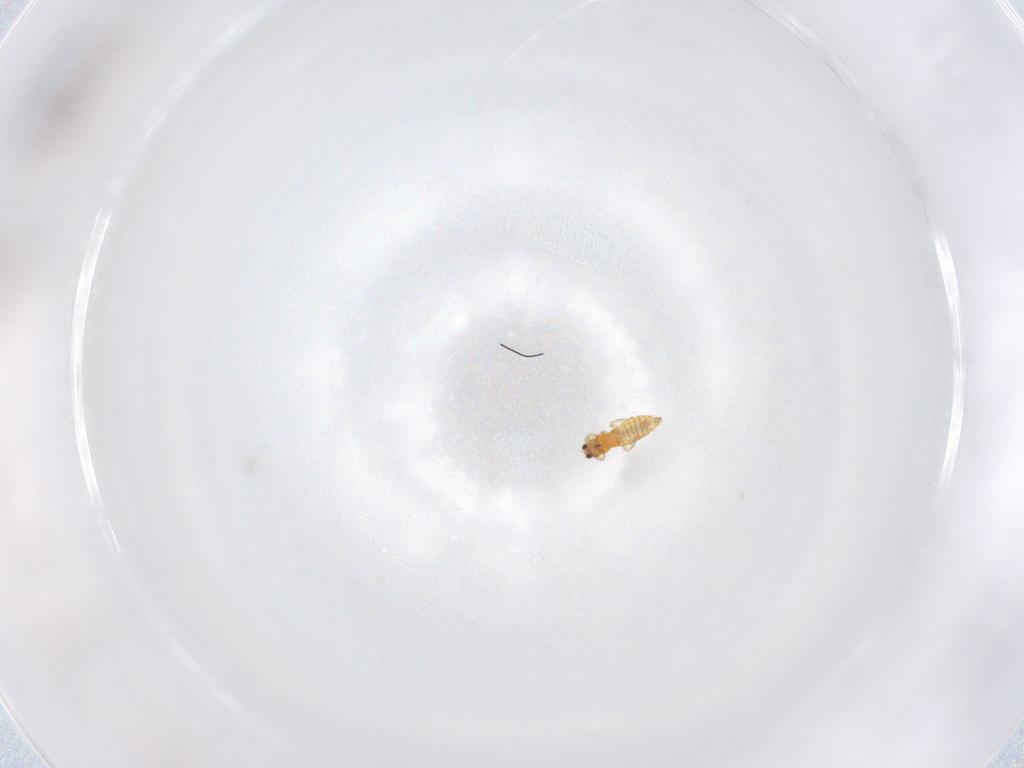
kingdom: Animalia
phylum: Arthropoda
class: Insecta
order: Thysanoptera
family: Thripidae
